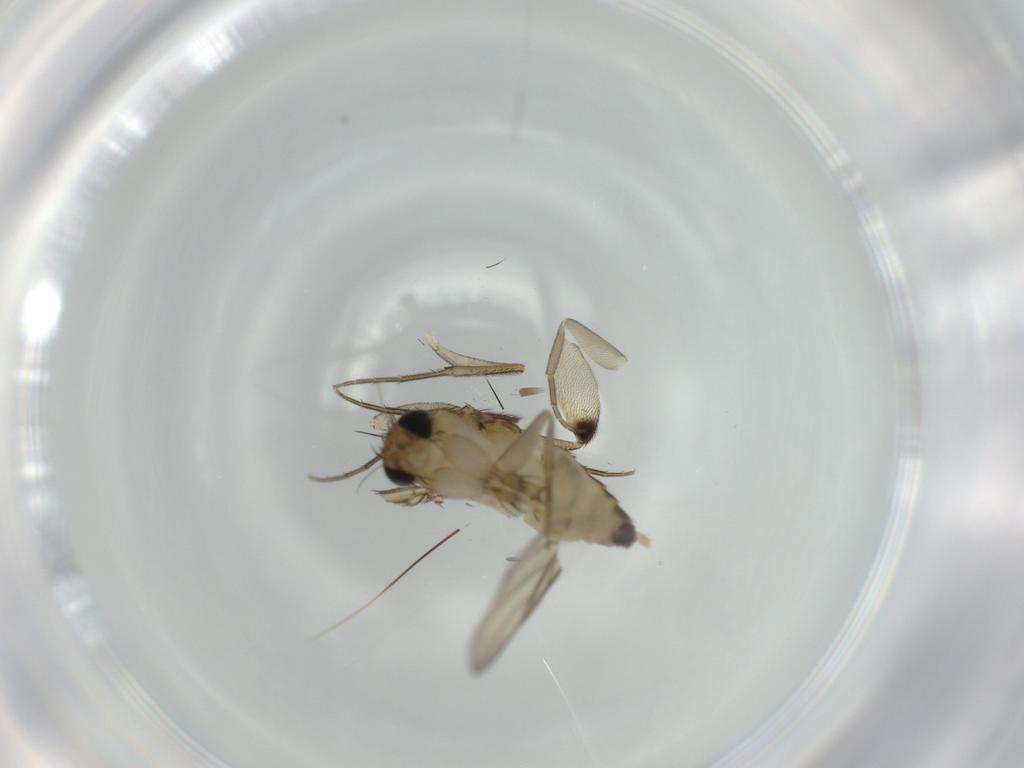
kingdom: Animalia
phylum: Arthropoda
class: Insecta
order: Diptera
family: Phoridae
